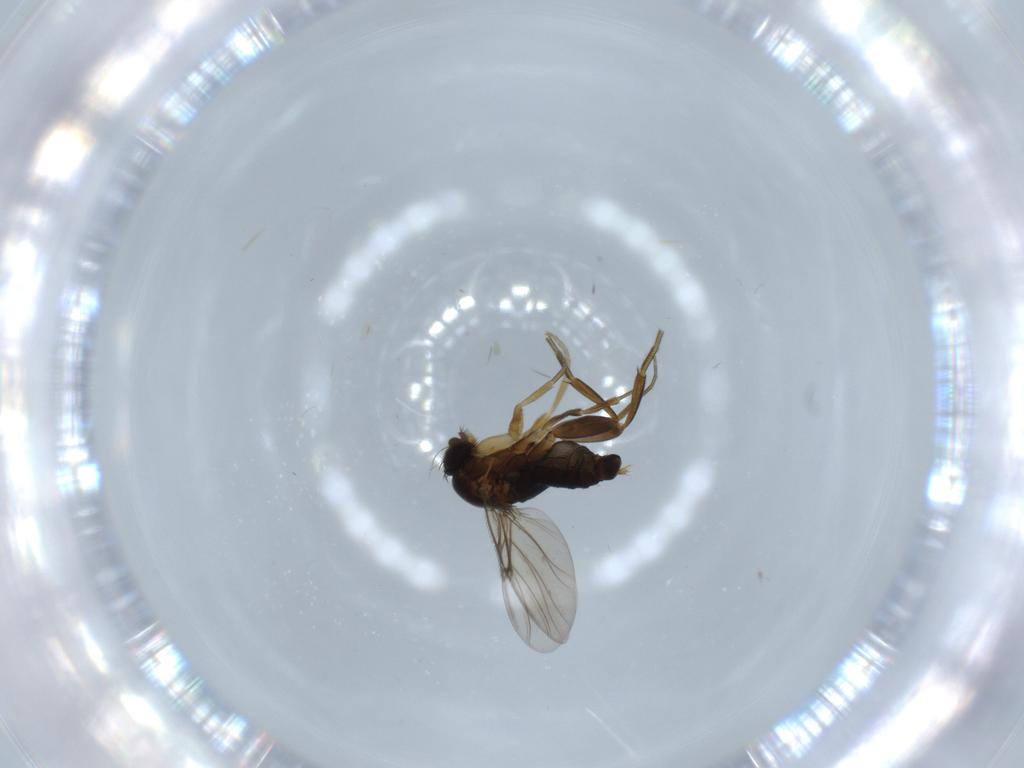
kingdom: Animalia
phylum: Arthropoda
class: Insecta
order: Diptera
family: Phoridae
